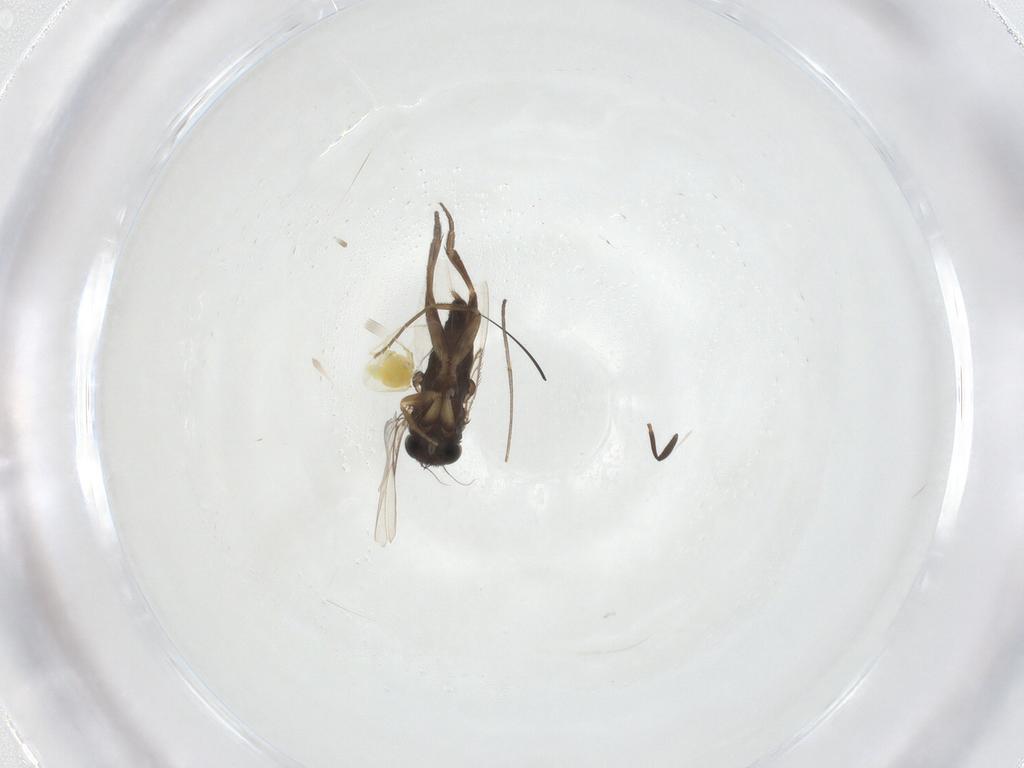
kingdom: Animalia
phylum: Arthropoda
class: Insecta
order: Diptera
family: Phoridae
